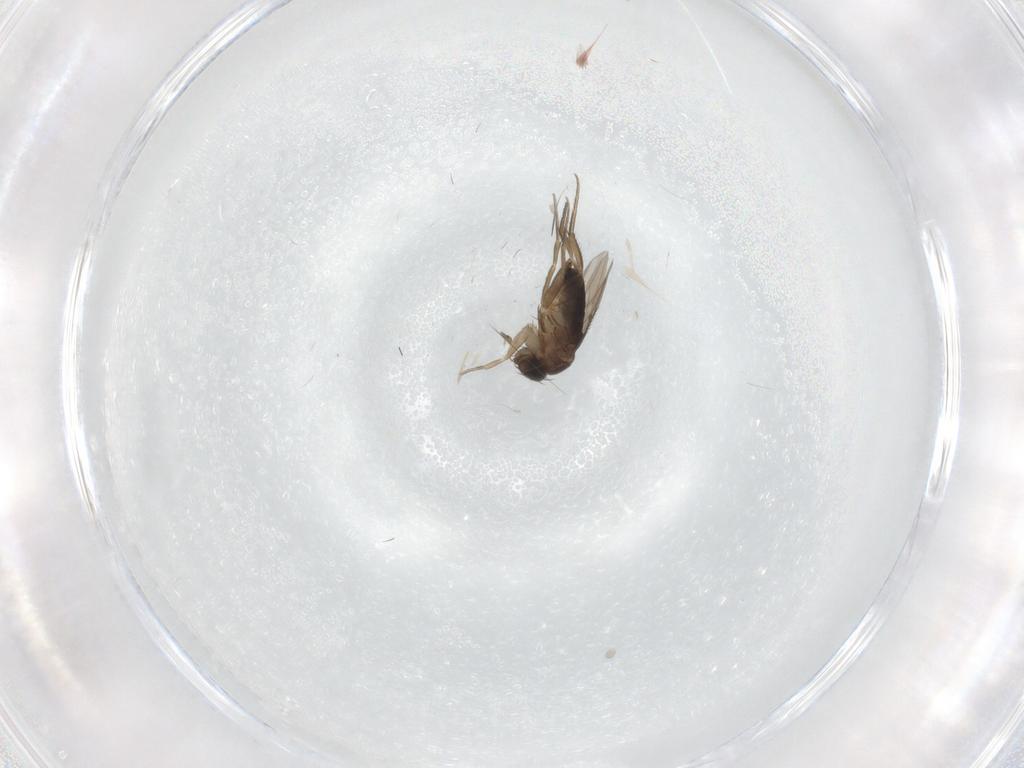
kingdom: Animalia
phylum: Arthropoda
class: Insecta
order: Diptera
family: Phoridae
